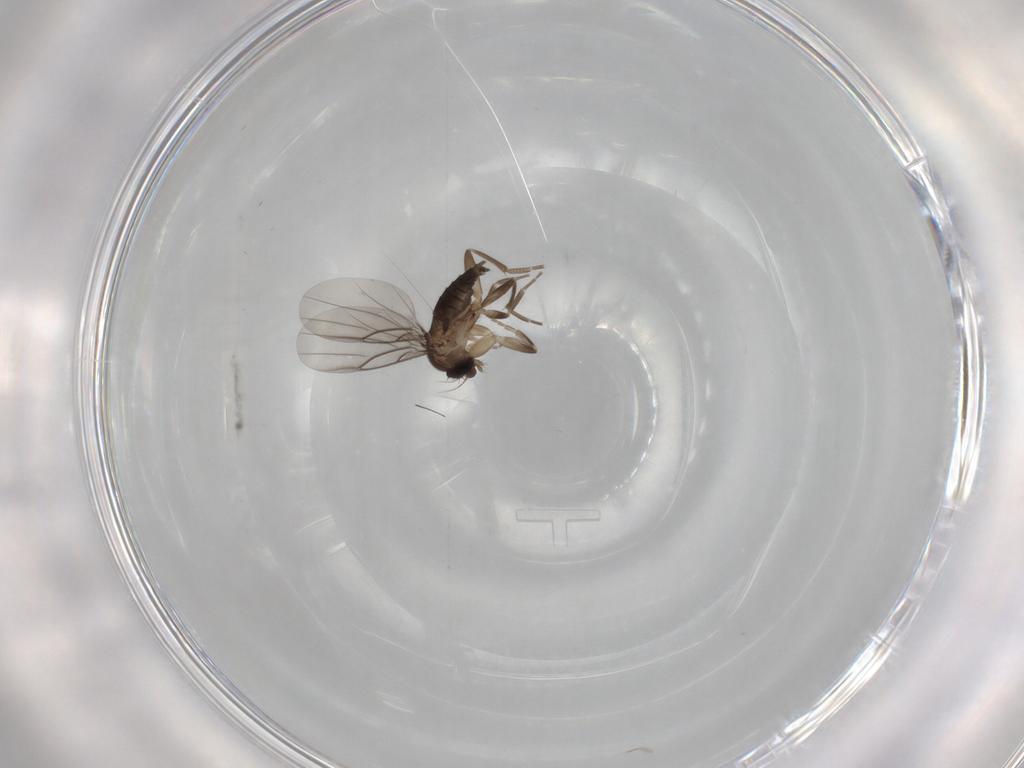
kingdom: Animalia
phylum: Arthropoda
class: Insecta
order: Diptera
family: Phoridae
